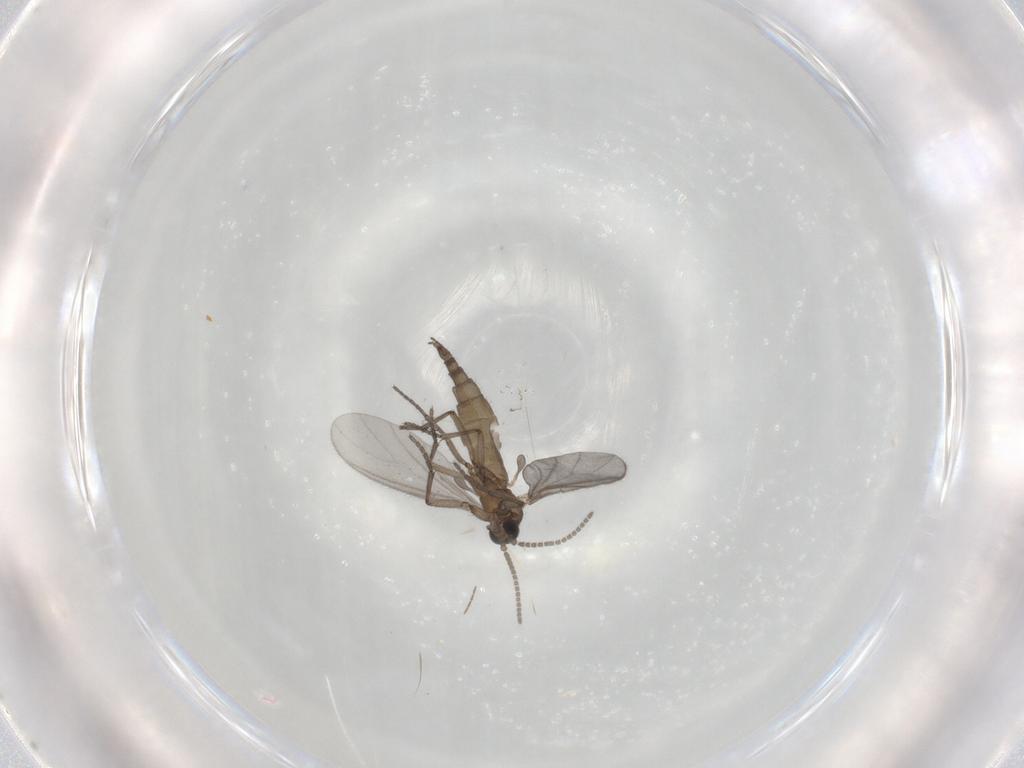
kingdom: Animalia
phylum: Arthropoda
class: Insecta
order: Diptera
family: Sciaridae
